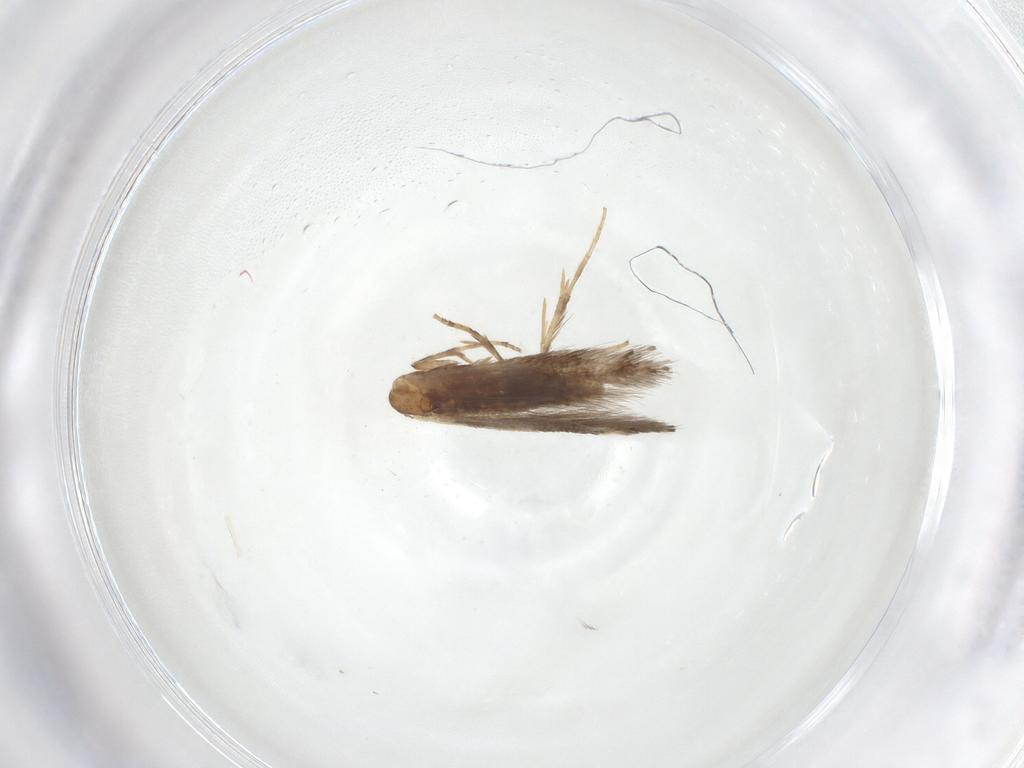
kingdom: Animalia
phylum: Arthropoda
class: Insecta
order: Lepidoptera
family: Gelechiidae
